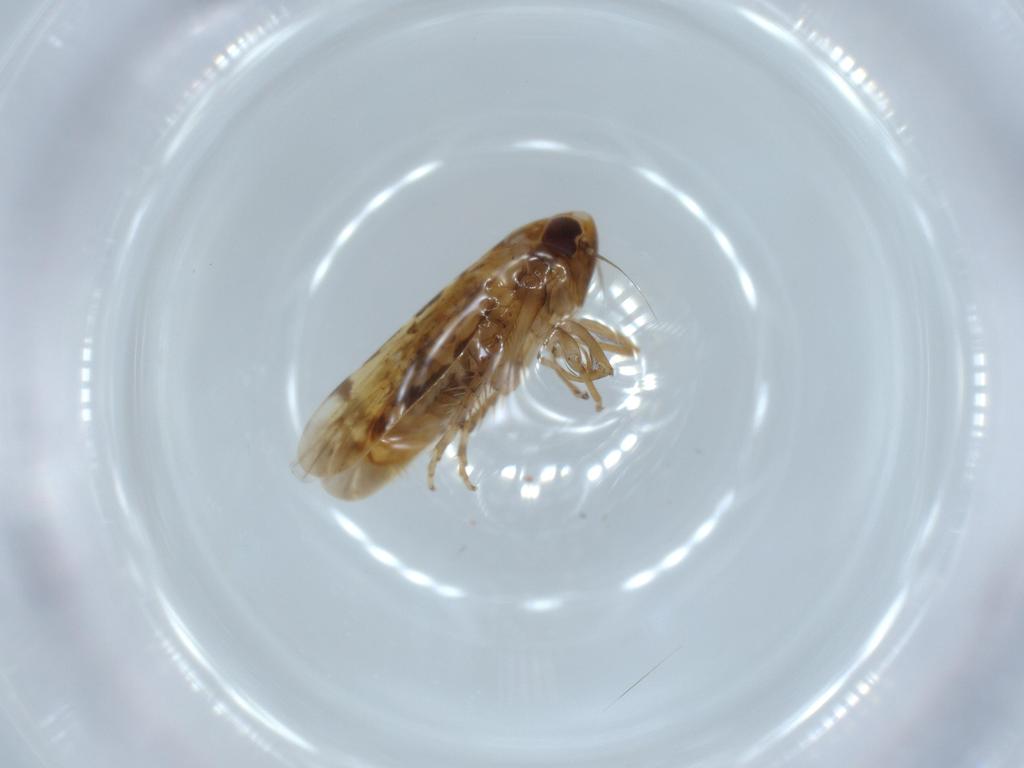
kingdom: Animalia
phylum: Arthropoda
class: Insecta
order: Hemiptera
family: Cicadellidae
